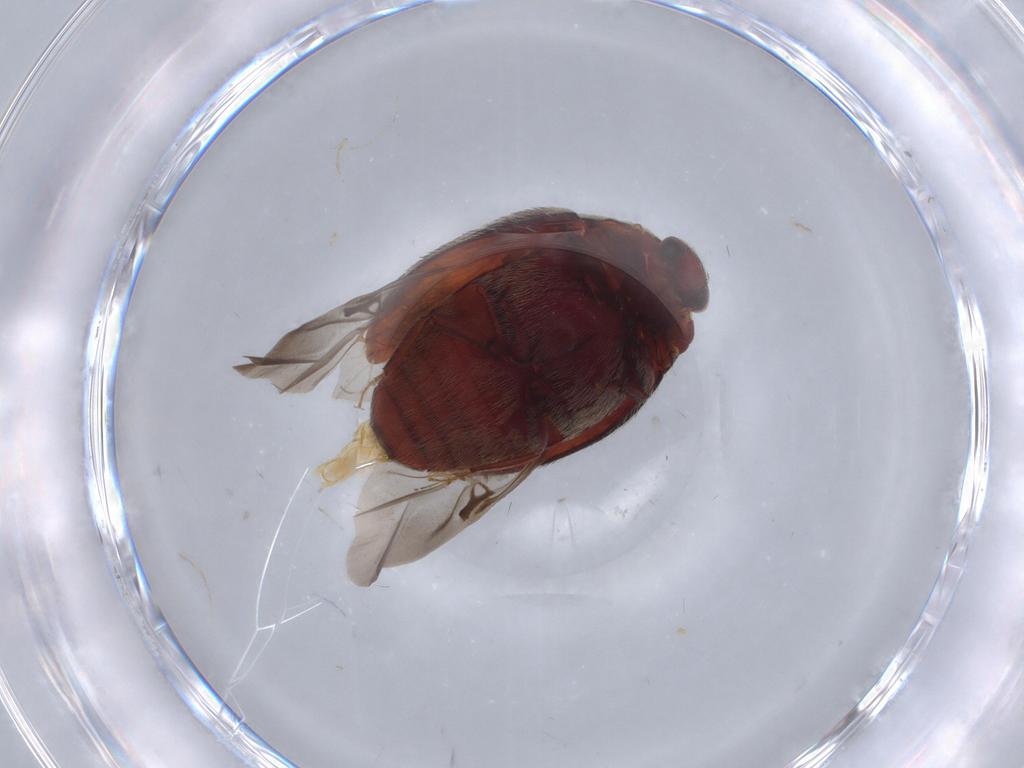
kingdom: Animalia
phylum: Arthropoda
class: Insecta
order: Coleoptera
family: Dermestidae
